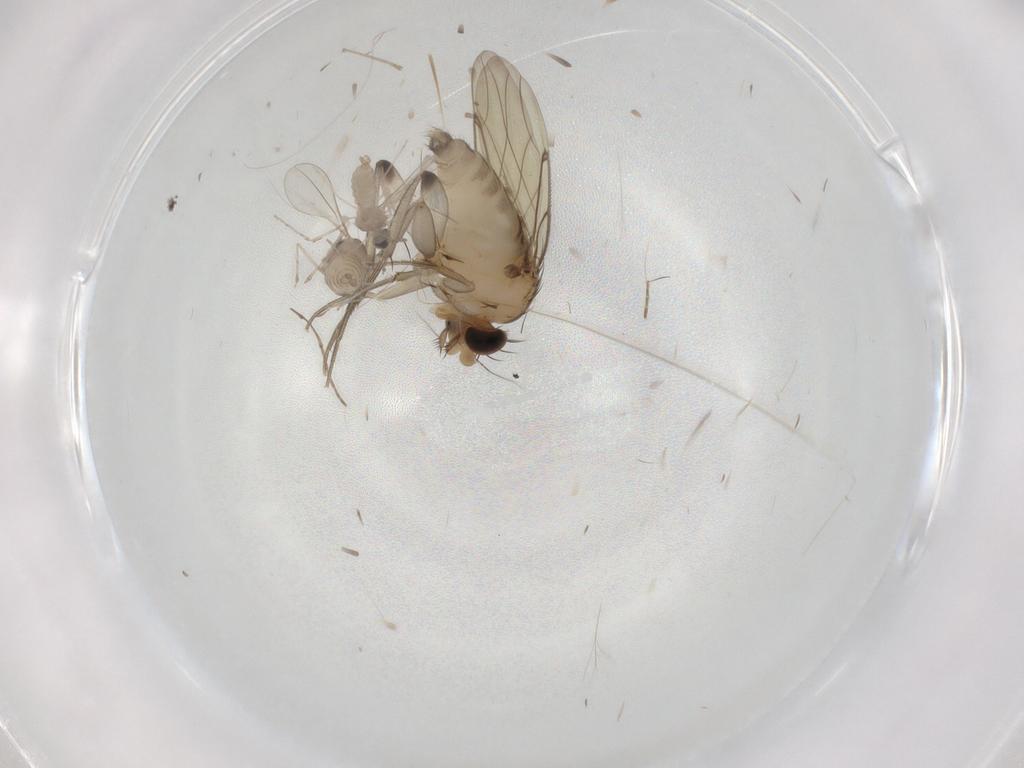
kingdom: Animalia
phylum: Arthropoda
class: Insecta
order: Diptera
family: Cecidomyiidae
